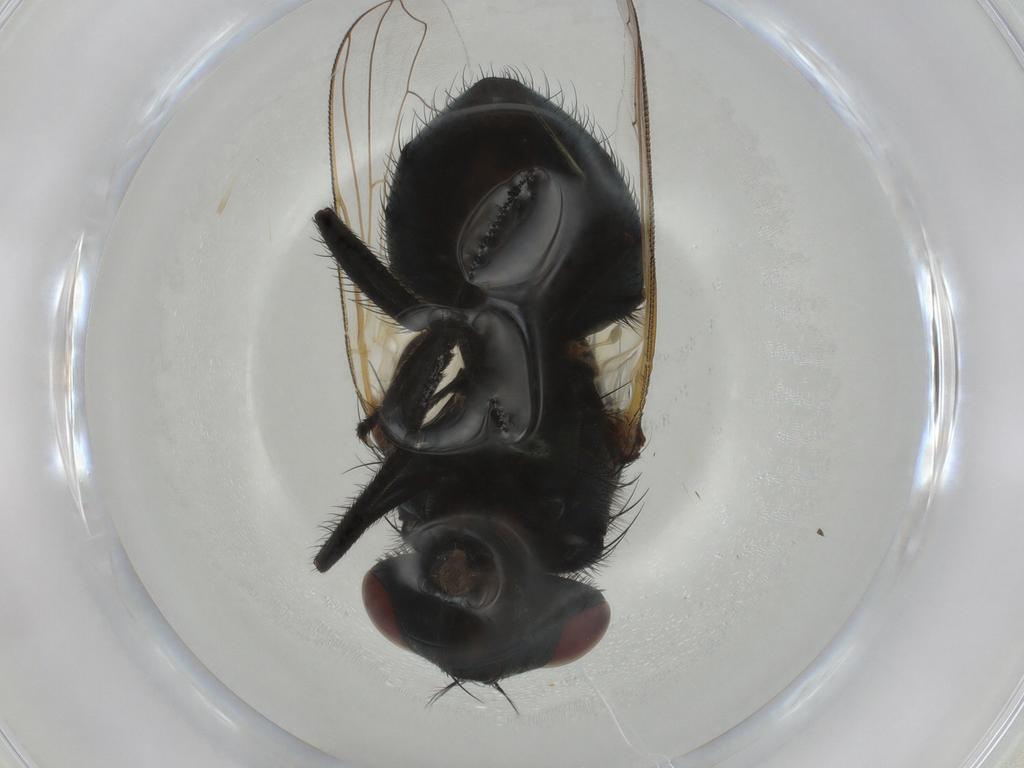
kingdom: Animalia
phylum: Arthropoda
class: Insecta
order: Diptera
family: Muscidae
